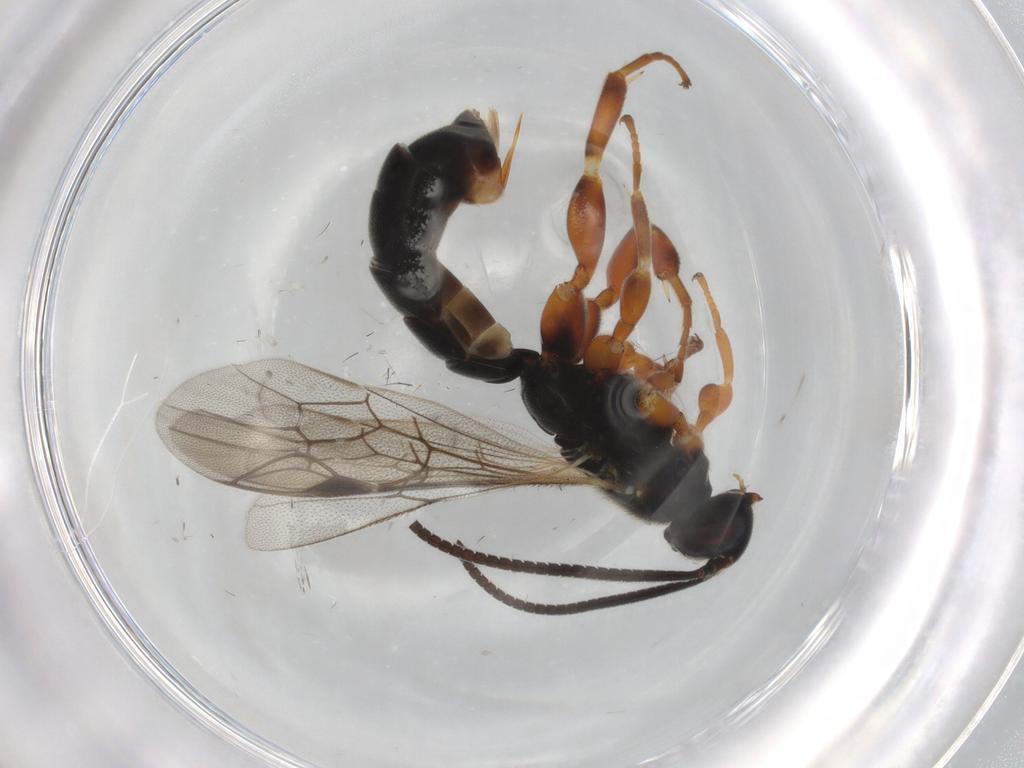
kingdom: Animalia
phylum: Arthropoda
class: Insecta
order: Hymenoptera
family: Ichneumonidae
